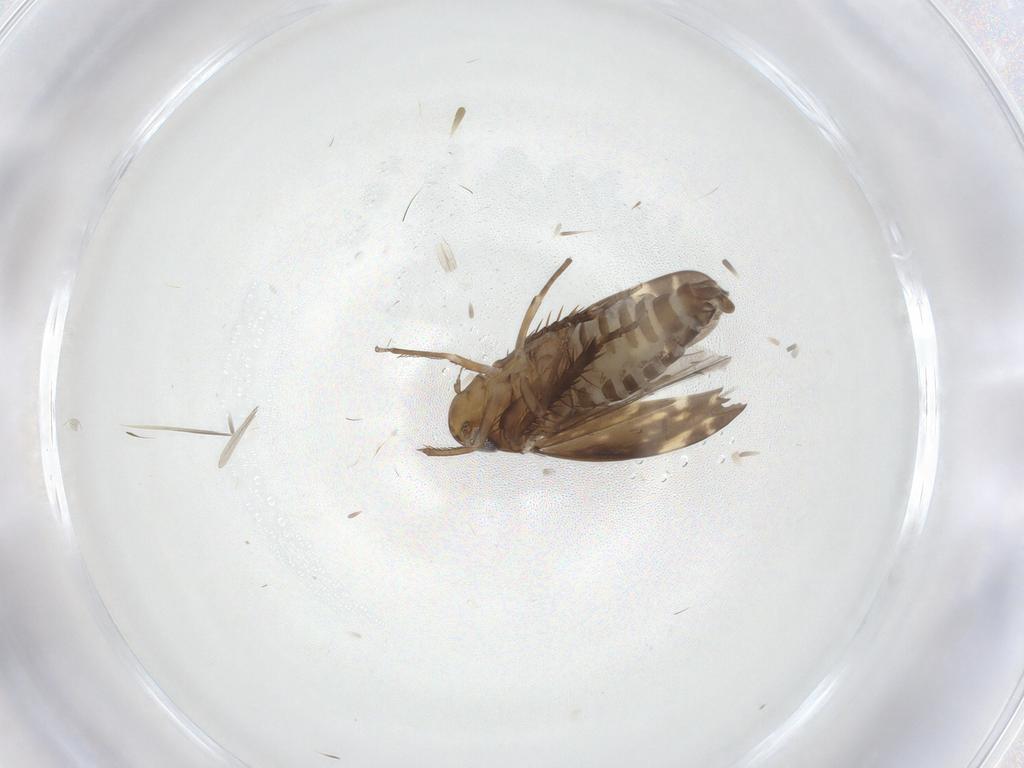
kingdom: Animalia
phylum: Arthropoda
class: Insecta
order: Hemiptera
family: Cicadellidae
